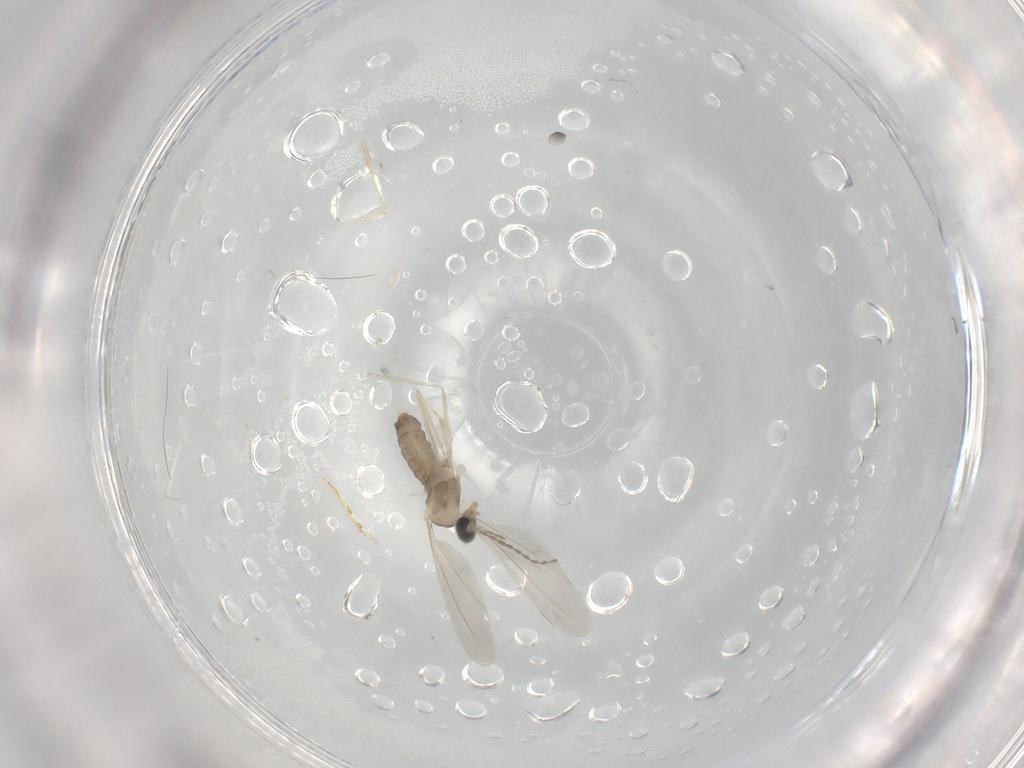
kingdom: Animalia
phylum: Arthropoda
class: Insecta
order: Diptera
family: Cecidomyiidae
